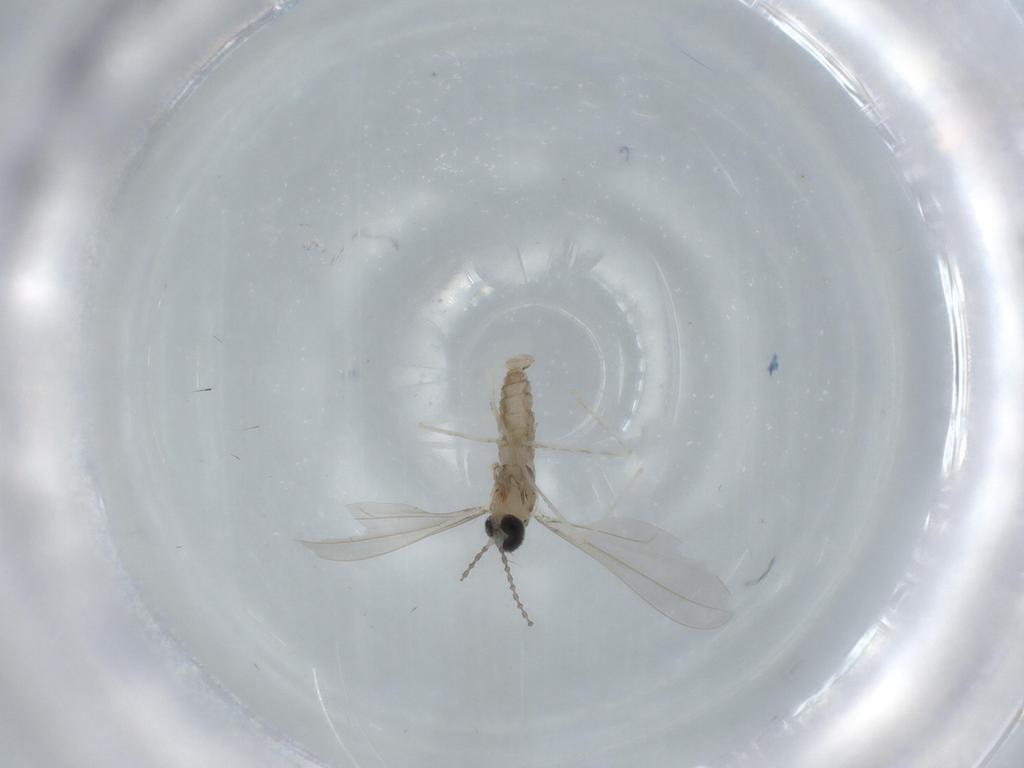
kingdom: Animalia
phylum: Arthropoda
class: Insecta
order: Diptera
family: Cecidomyiidae
